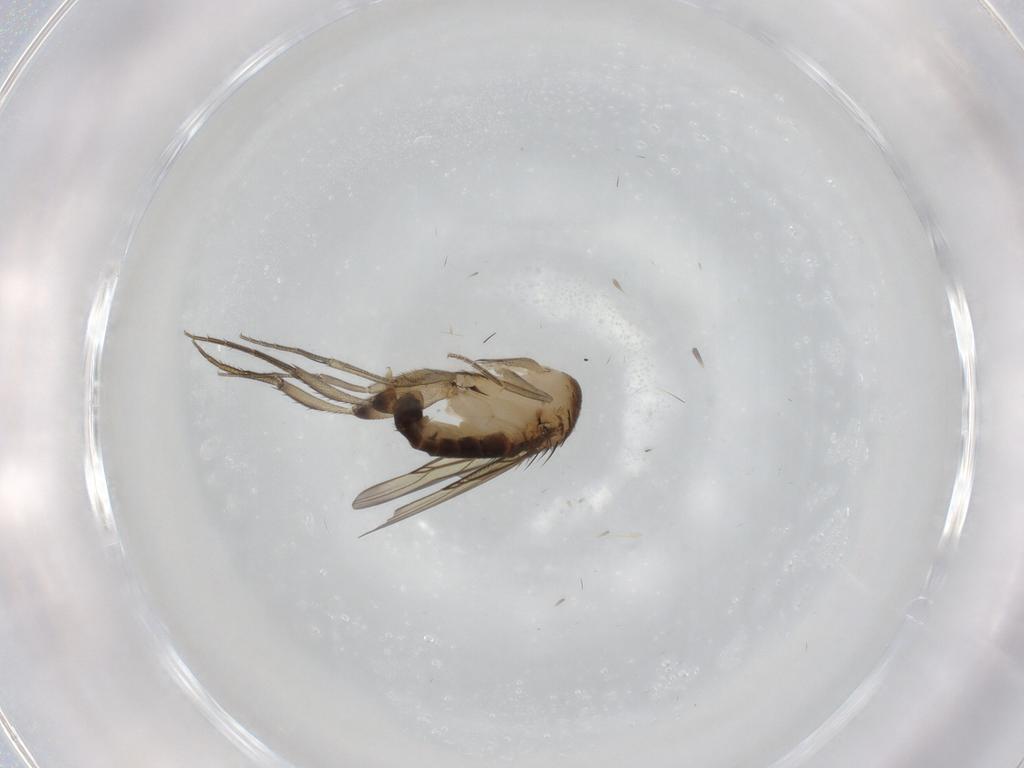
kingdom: Animalia
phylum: Arthropoda
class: Insecta
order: Diptera
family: Phoridae
